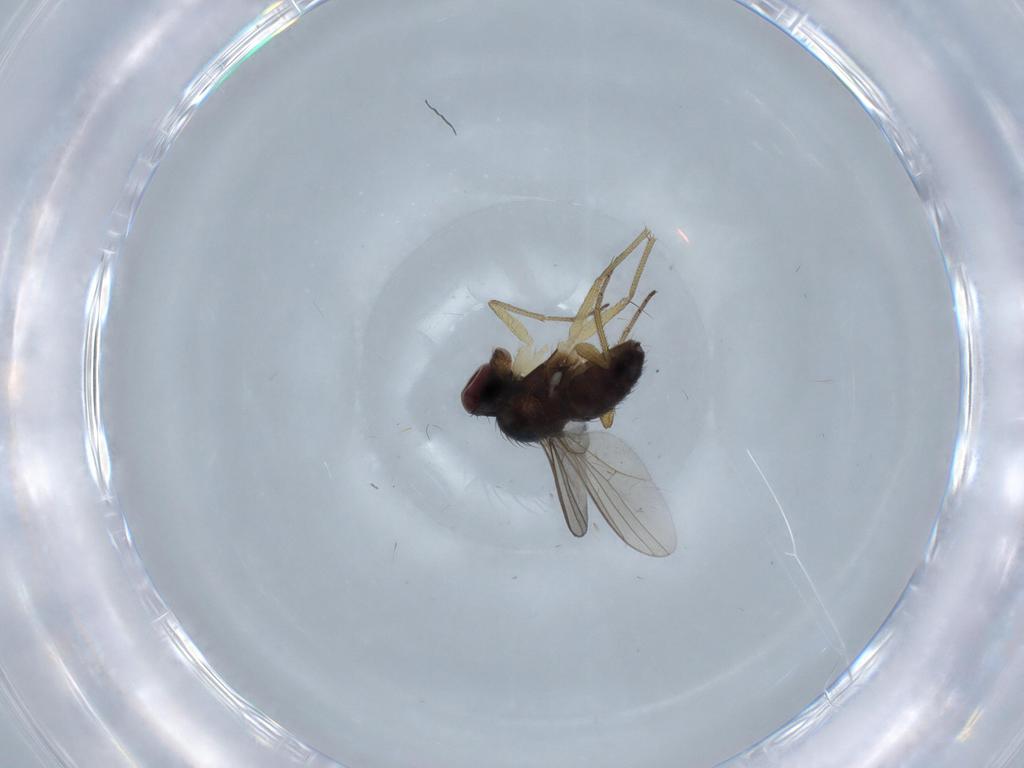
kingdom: Animalia
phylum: Arthropoda
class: Insecta
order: Diptera
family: Dolichopodidae
